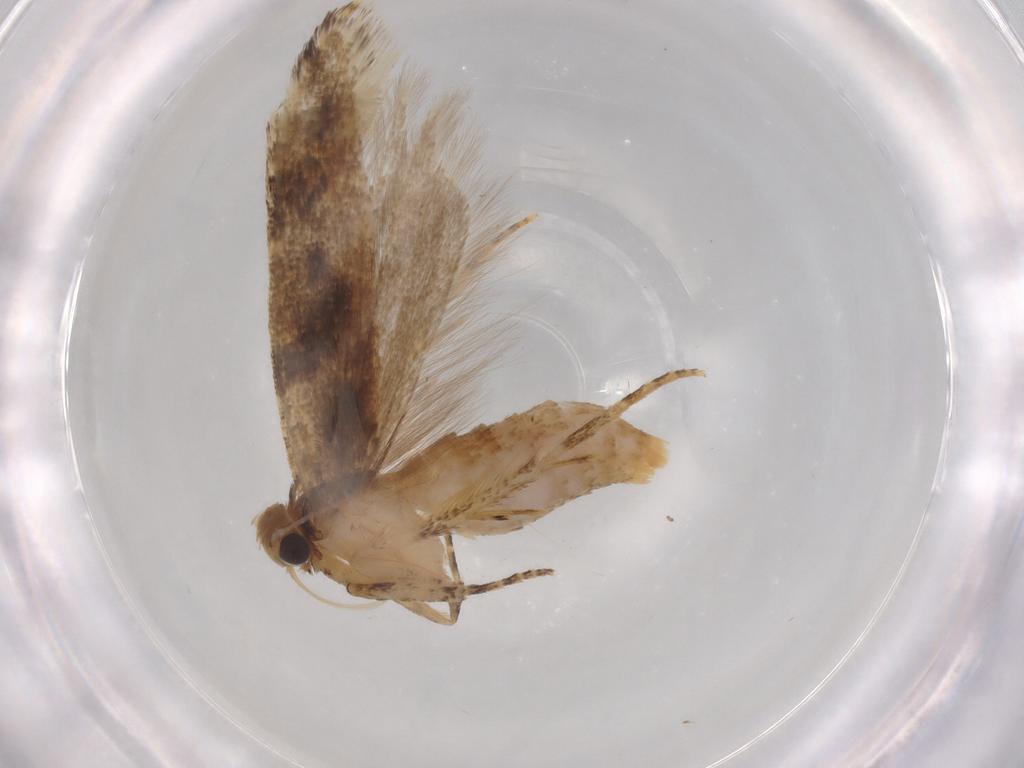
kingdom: Animalia
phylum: Arthropoda
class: Insecta
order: Lepidoptera
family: Gelechiidae
